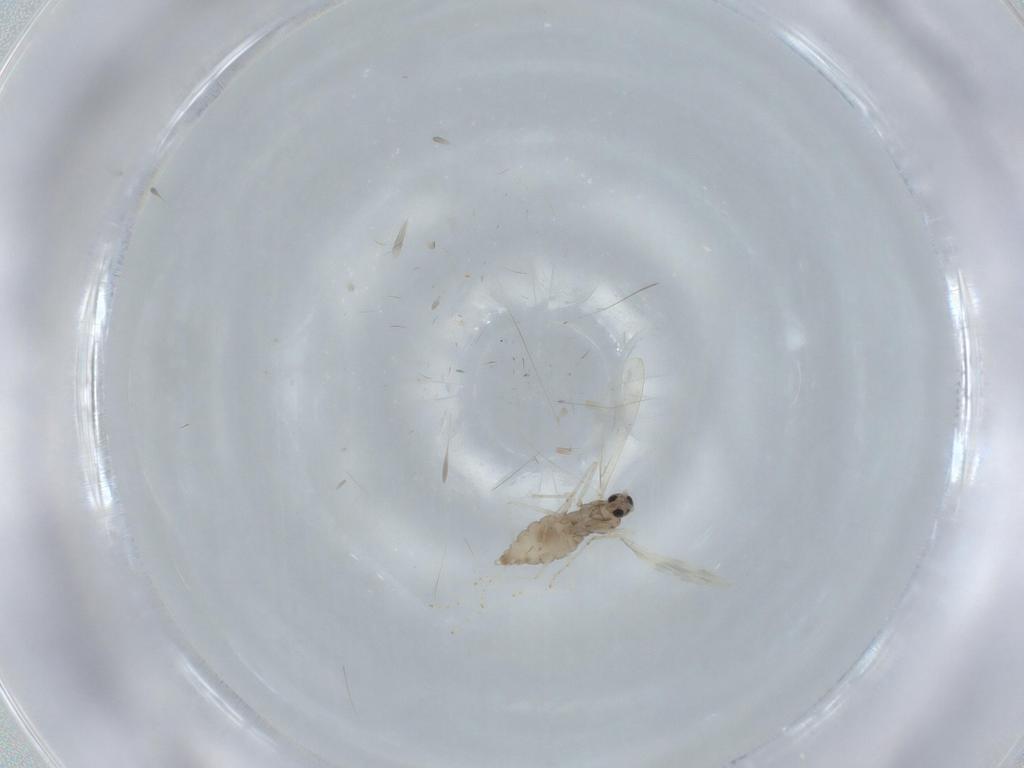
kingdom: Animalia
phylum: Arthropoda
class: Insecta
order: Diptera
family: Cecidomyiidae
